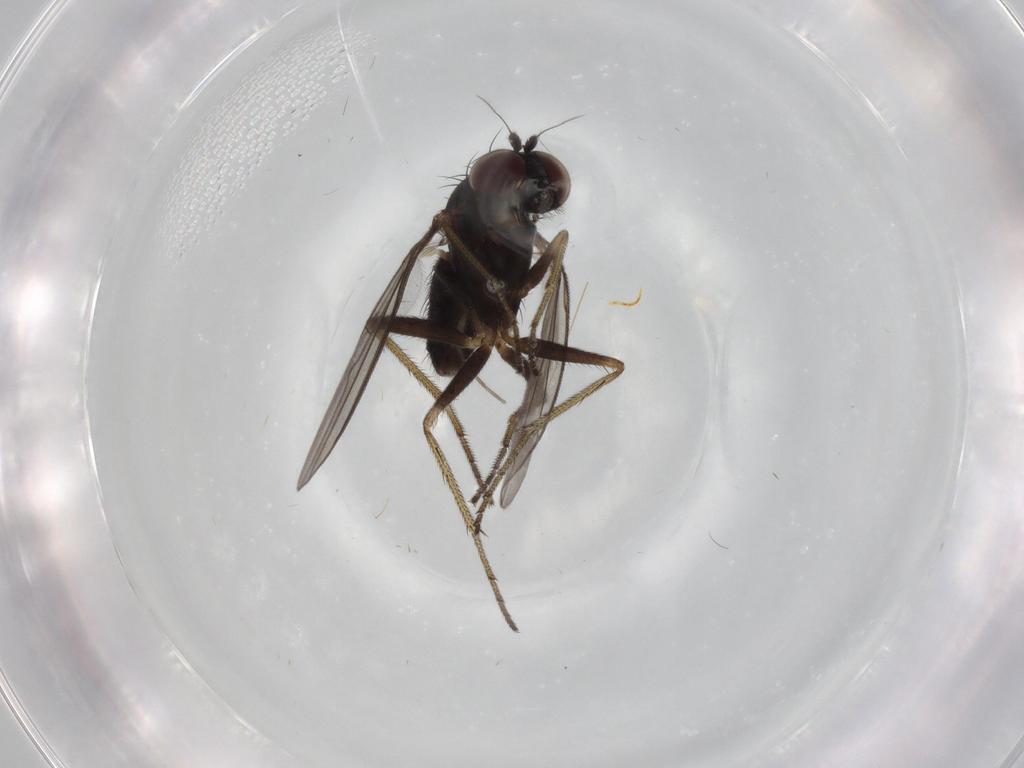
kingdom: Animalia
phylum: Arthropoda
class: Insecta
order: Diptera
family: Dolichopodidae
